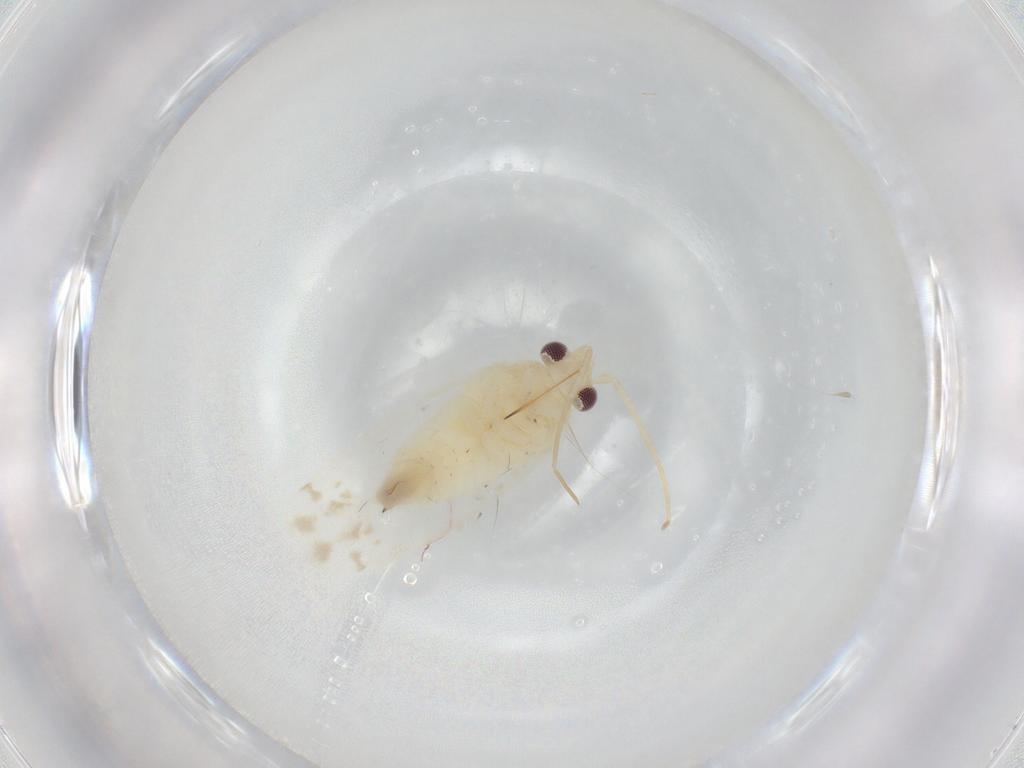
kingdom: Animalia
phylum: Arthropoda
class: Insecta
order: Hemiptera
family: Miridae
